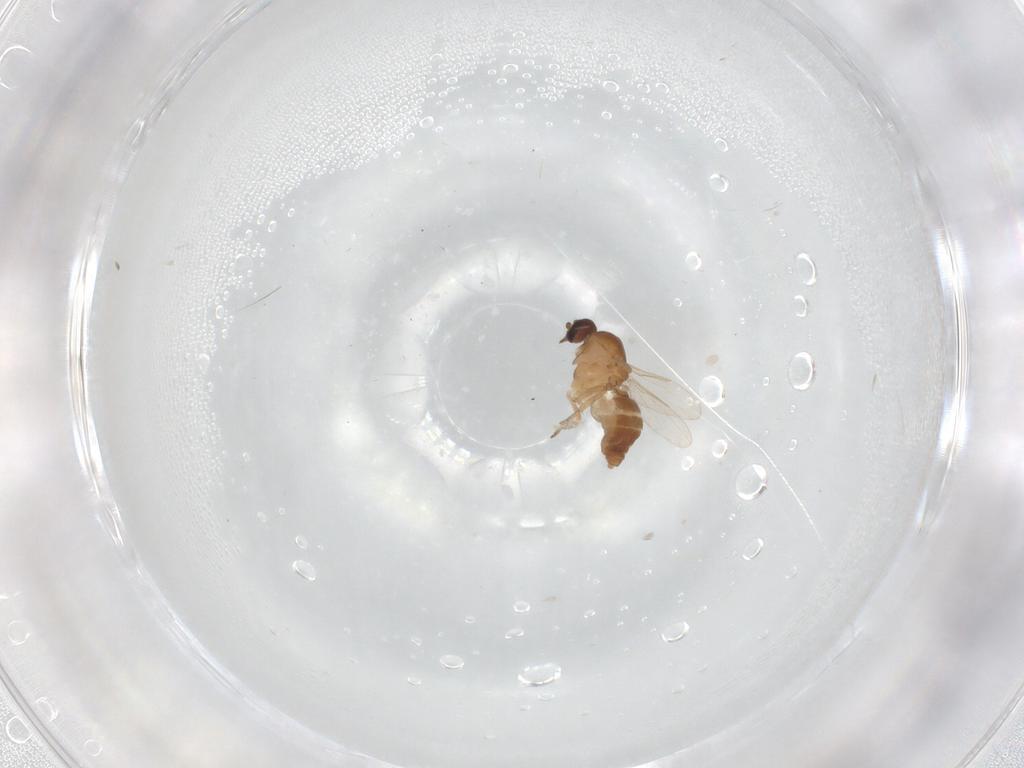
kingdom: Animalia
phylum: Arthropoda
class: Insecta
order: Diptera
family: Ceratopogonidae
